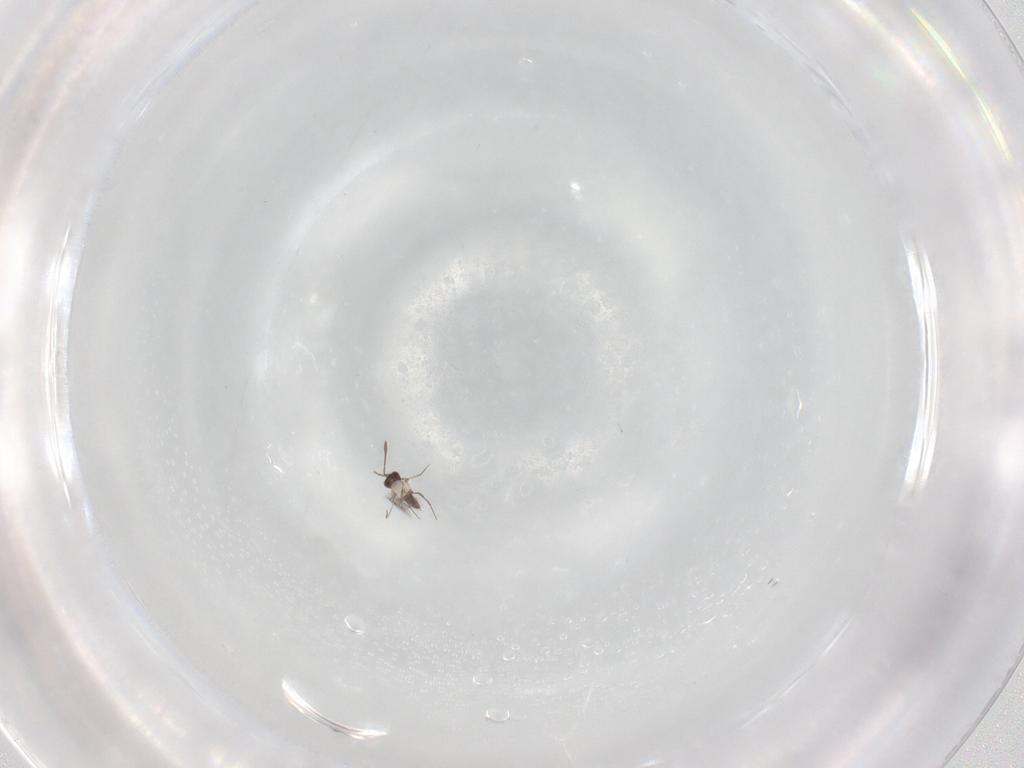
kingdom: Animalia
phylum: Arthropoda
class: Insecta
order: Hymenoptera
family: Mymaridae
